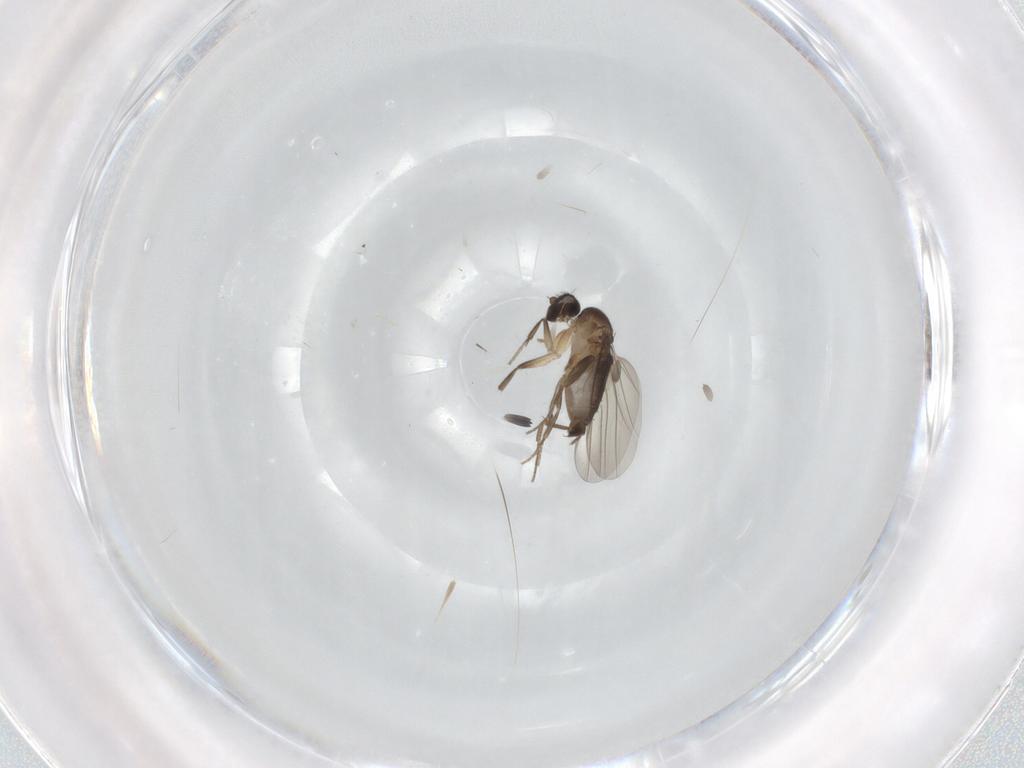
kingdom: Animalia
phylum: Arthropoda
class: Insecta
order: Diptera
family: Phoridae
